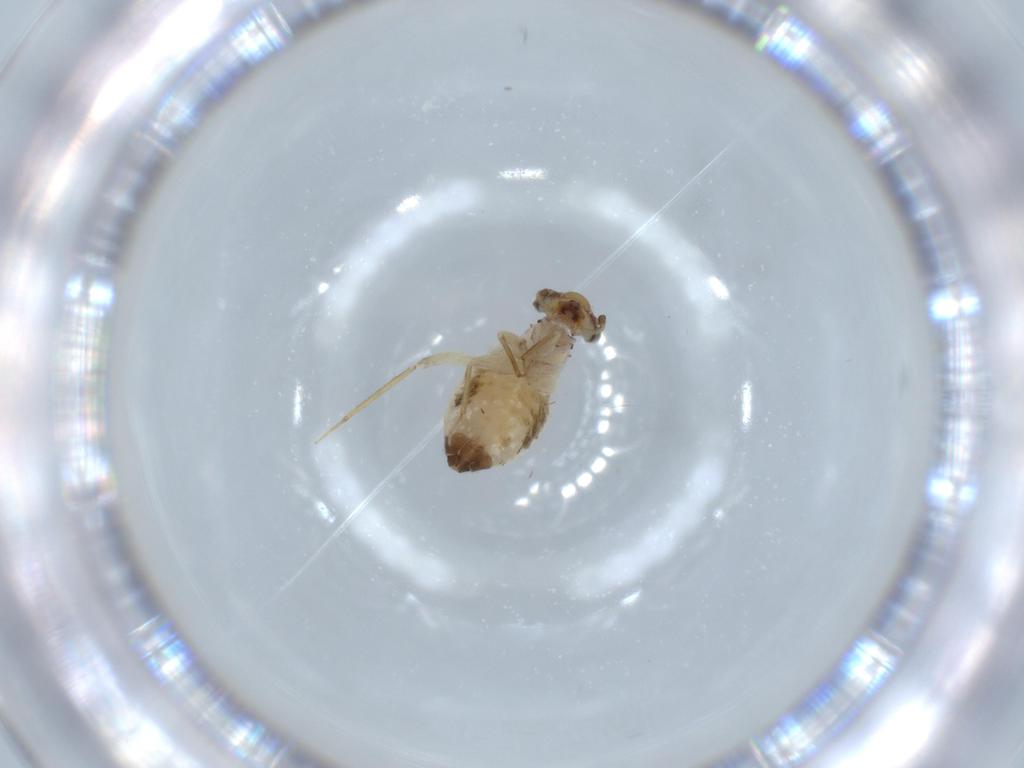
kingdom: Animalia
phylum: Arthropoda
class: Insecta
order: Psocodea
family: Lepidopsocidae
